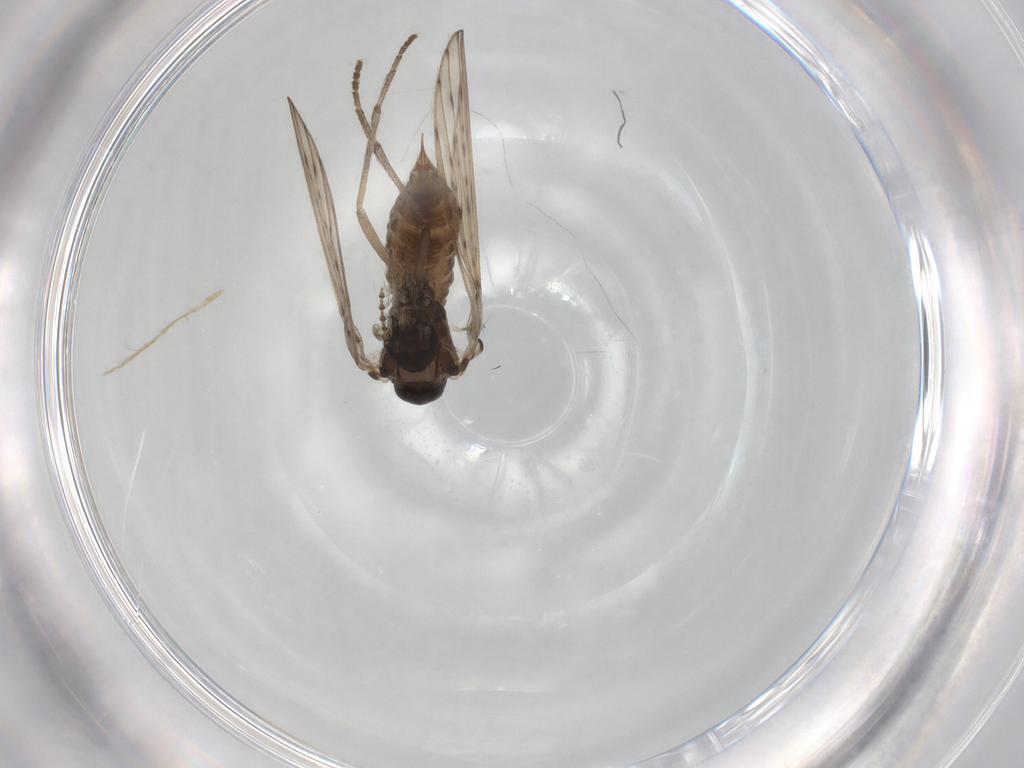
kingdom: Animalia
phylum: Arthropoda
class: Insecta
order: Diptera
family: Psychodidae
